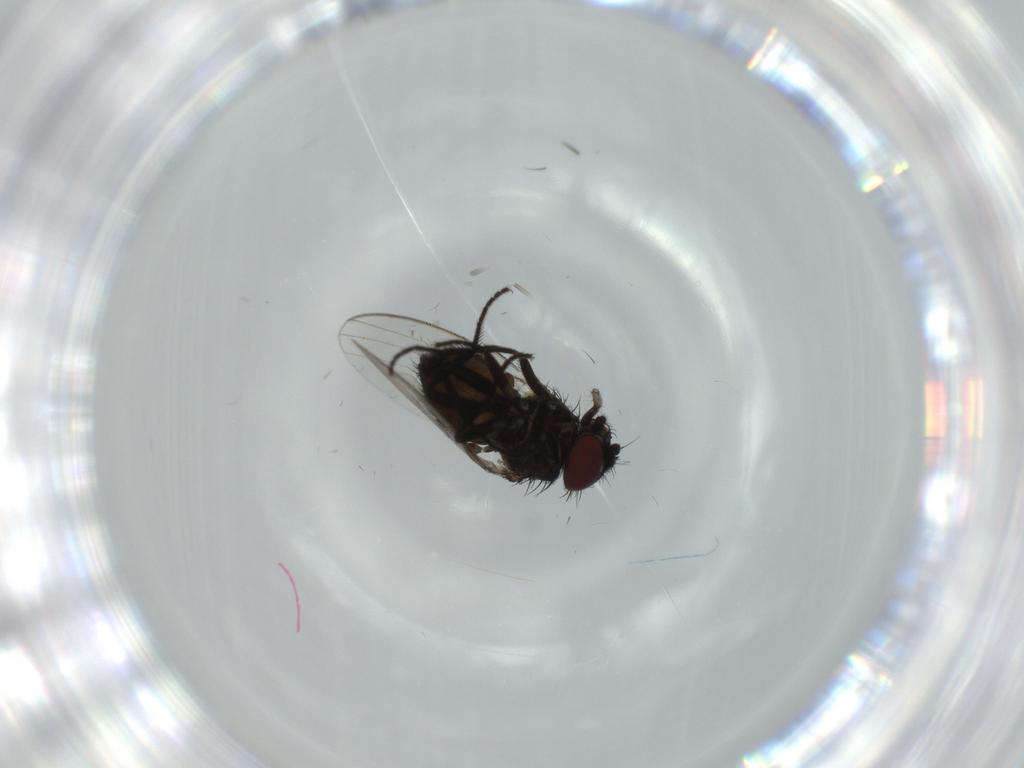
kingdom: Animalia
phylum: Arthropoda
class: Insecta
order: Diptera
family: Milichiidae
